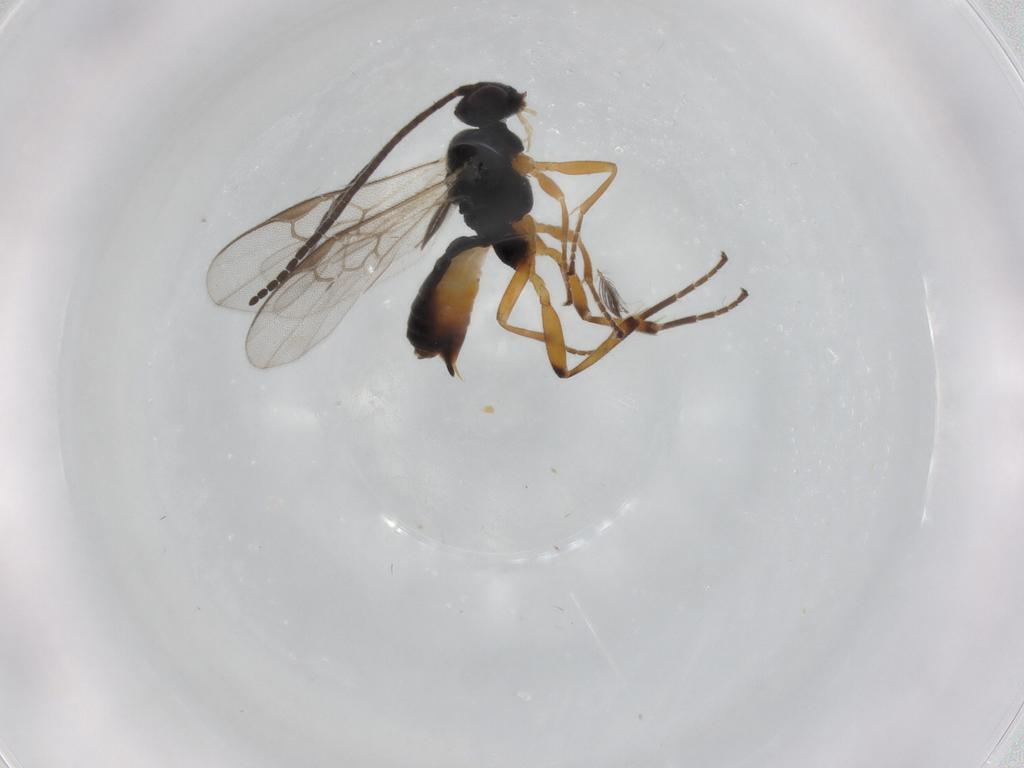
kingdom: Animalia
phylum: Arthropoda
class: Insecta
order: Hymenoptera
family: Braconidae
